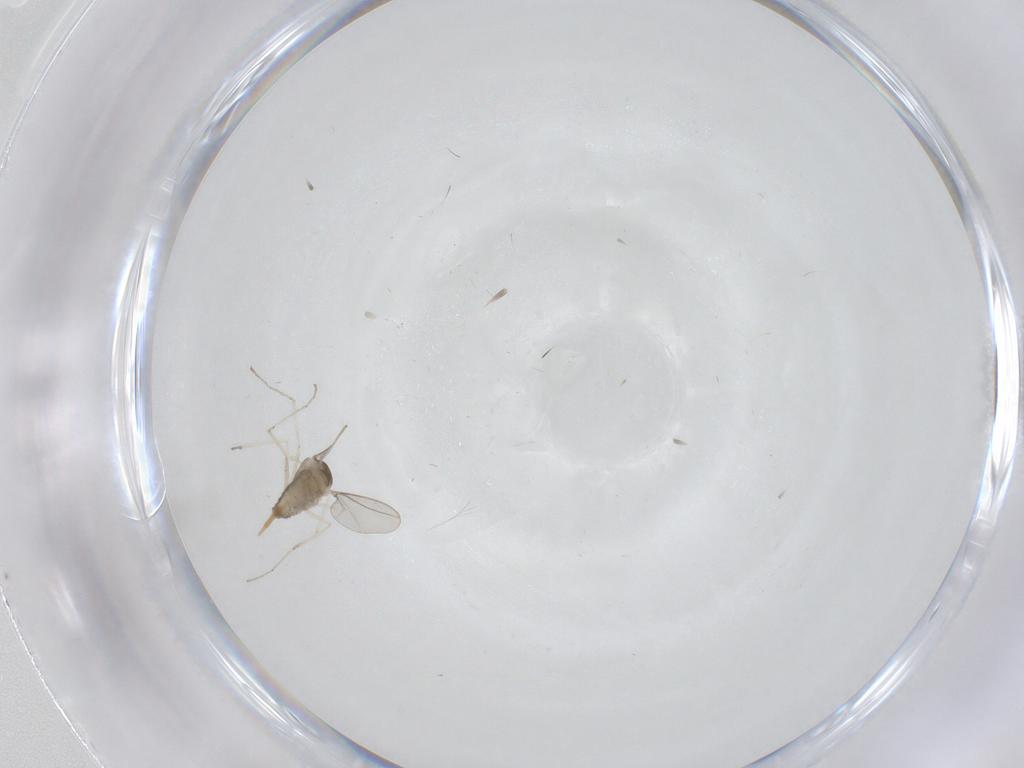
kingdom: Animalia
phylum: Arthropoda
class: Insecta
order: Diptera
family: Cecidomyiidae
